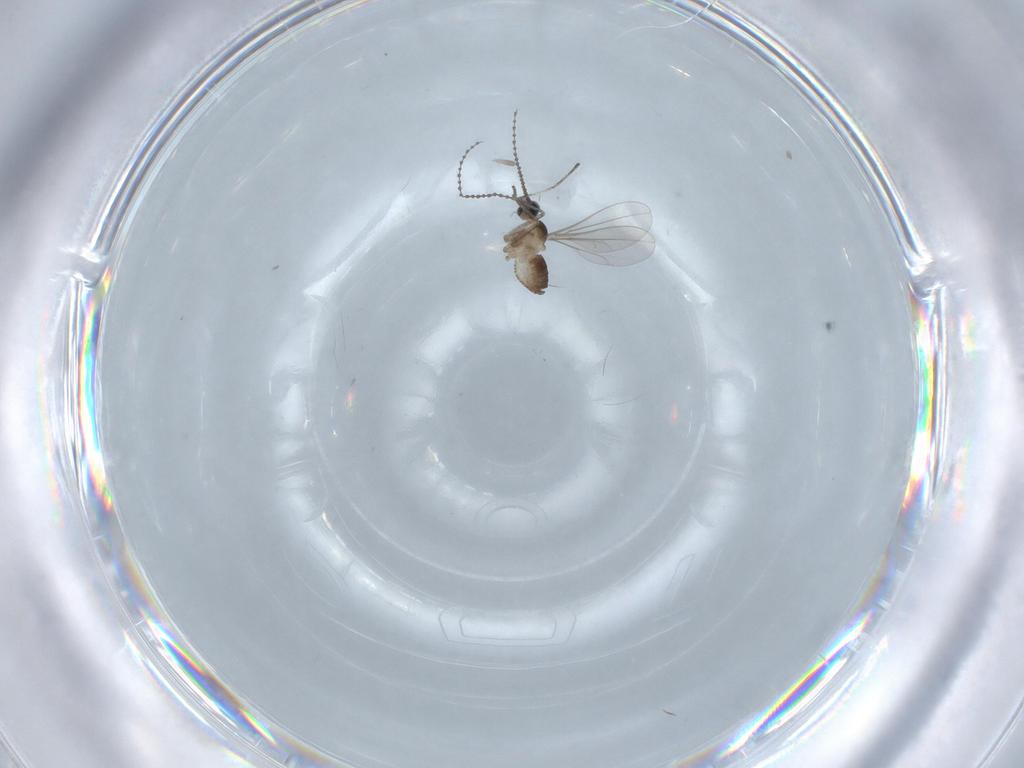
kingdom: Animalia
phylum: Arthropoda
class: Insecta
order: Diptera
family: Cecidomyiidae
